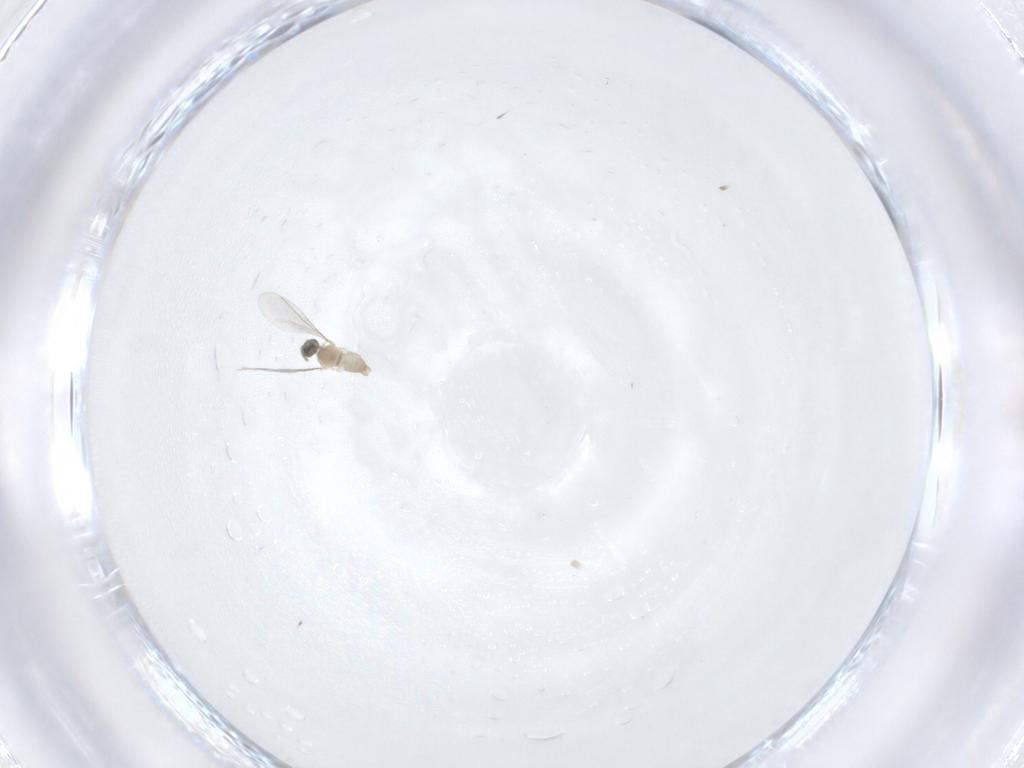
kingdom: Animalia
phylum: Arthropoda
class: Insecta
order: Diptera
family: Cecidomyiidae
